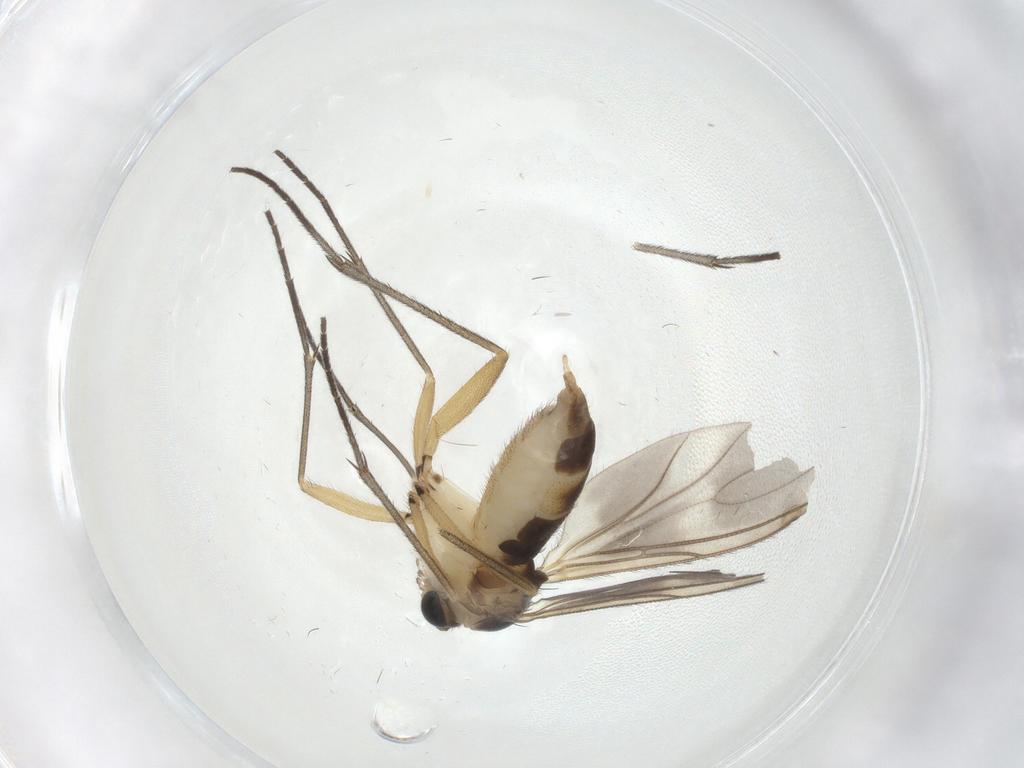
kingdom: Animalia
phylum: Arthropoda
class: Insecta
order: Diptera
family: Sciaridae
